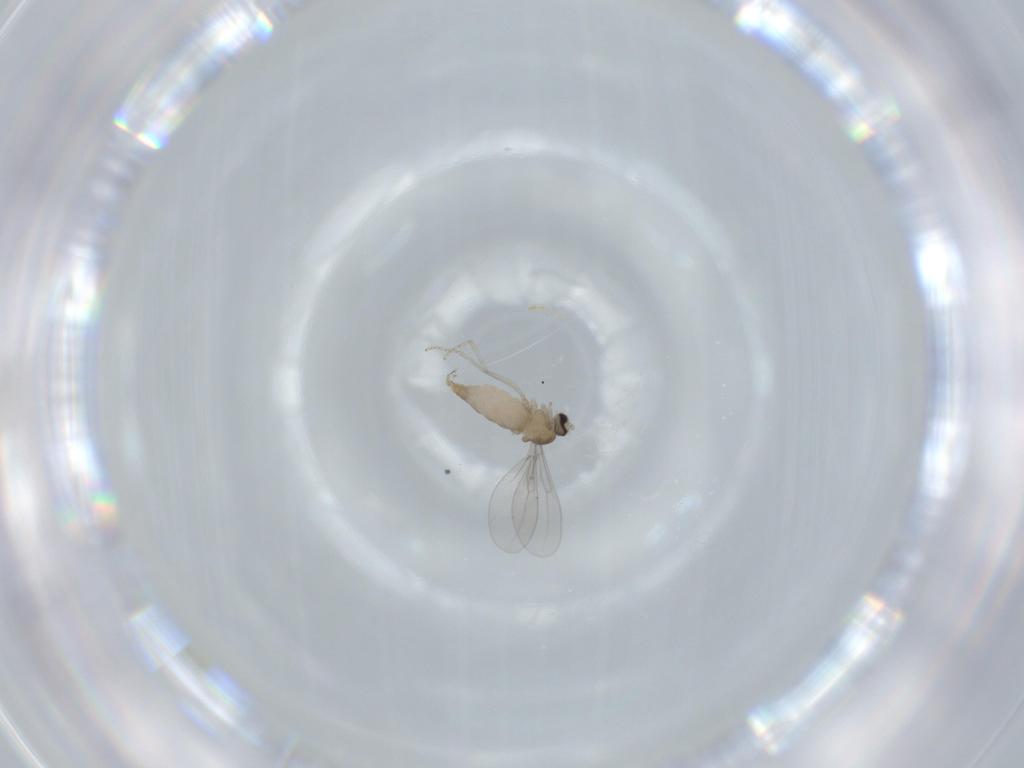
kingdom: Animalia
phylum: Arthropoda
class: Insecta
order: Diptera
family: Cecidomyiidae
